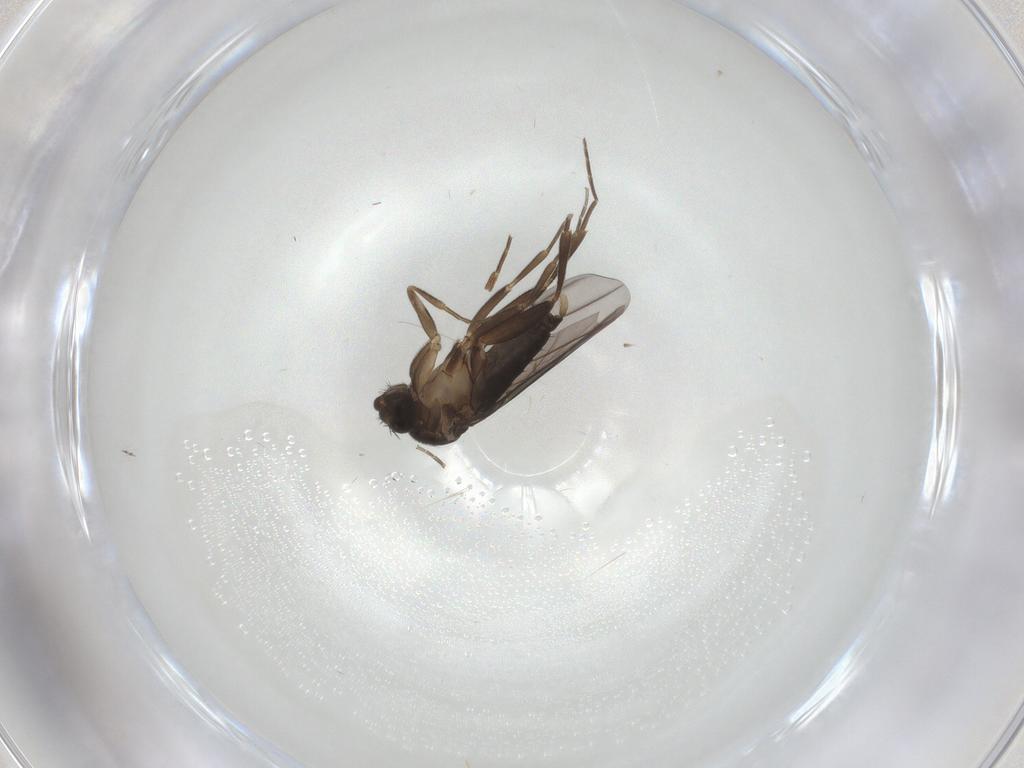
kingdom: Animalia
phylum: Arthropoda
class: Insecta
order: Diptera
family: Phoridae
